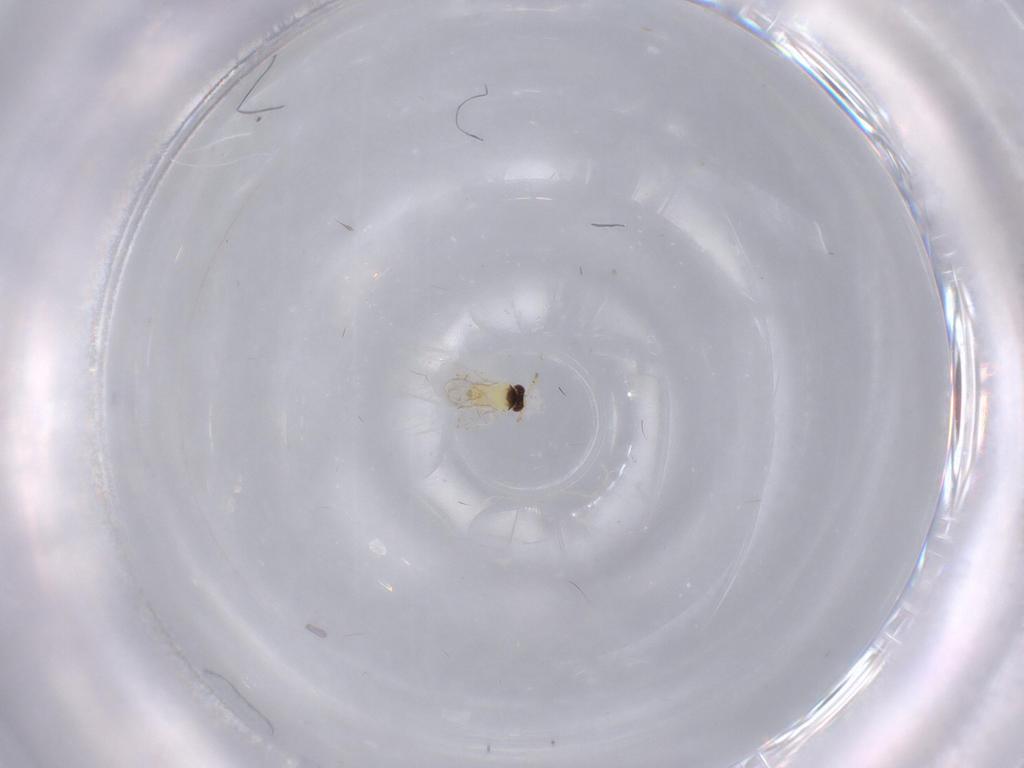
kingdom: Animalia
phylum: Arthropoda
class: Insecta
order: Hymenoptera
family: Aphelinidae
